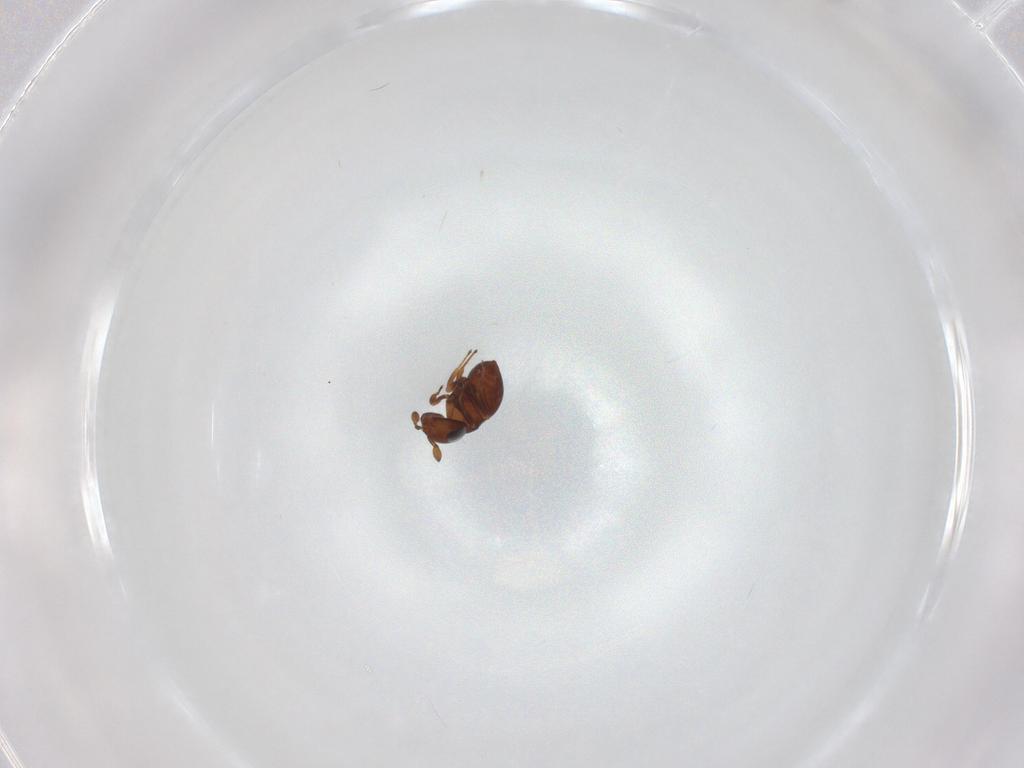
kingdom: Animalia
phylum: Arthropoda
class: Insecta
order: Hymenoptera
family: Scelionidae
